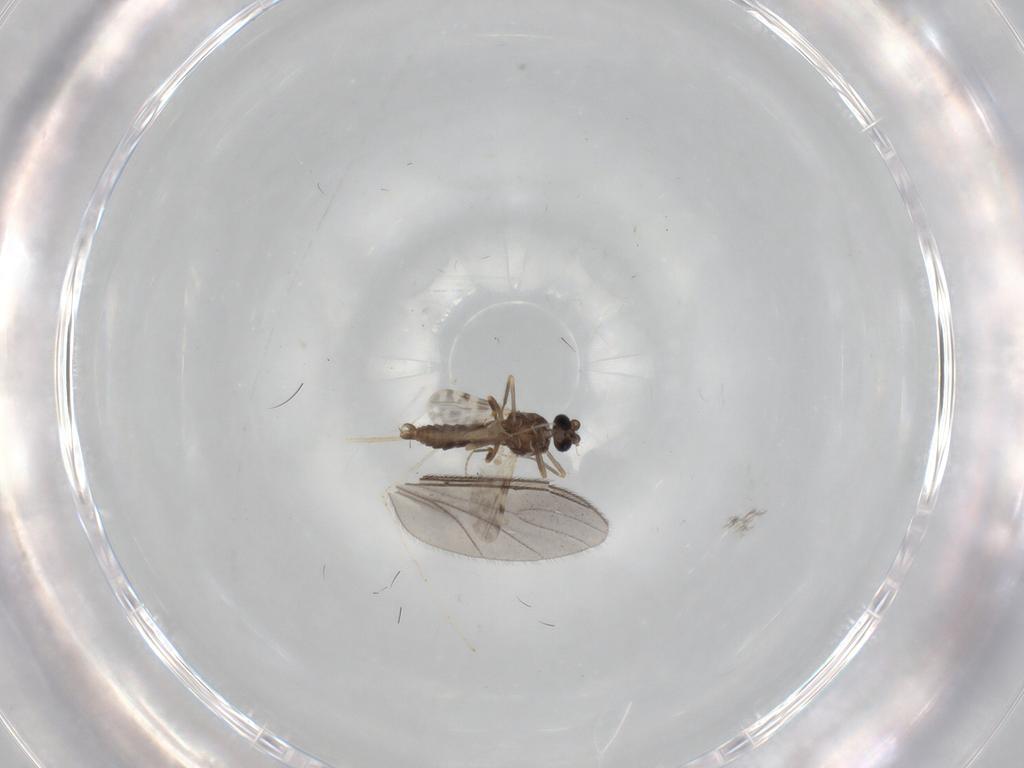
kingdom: Animalia
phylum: Arthropoda
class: Insecta
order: Diptera
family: Ceratopogonidae
